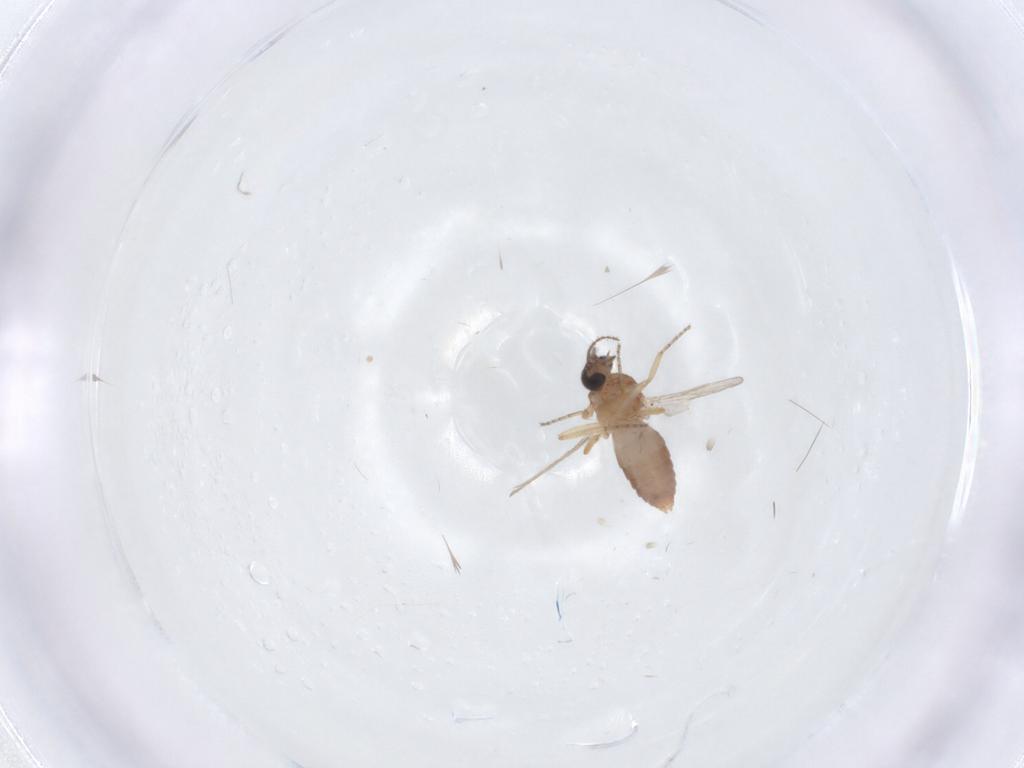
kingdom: Animalia
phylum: Arthropoda
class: Insecta
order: Diptera
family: Ceratopogonidae
